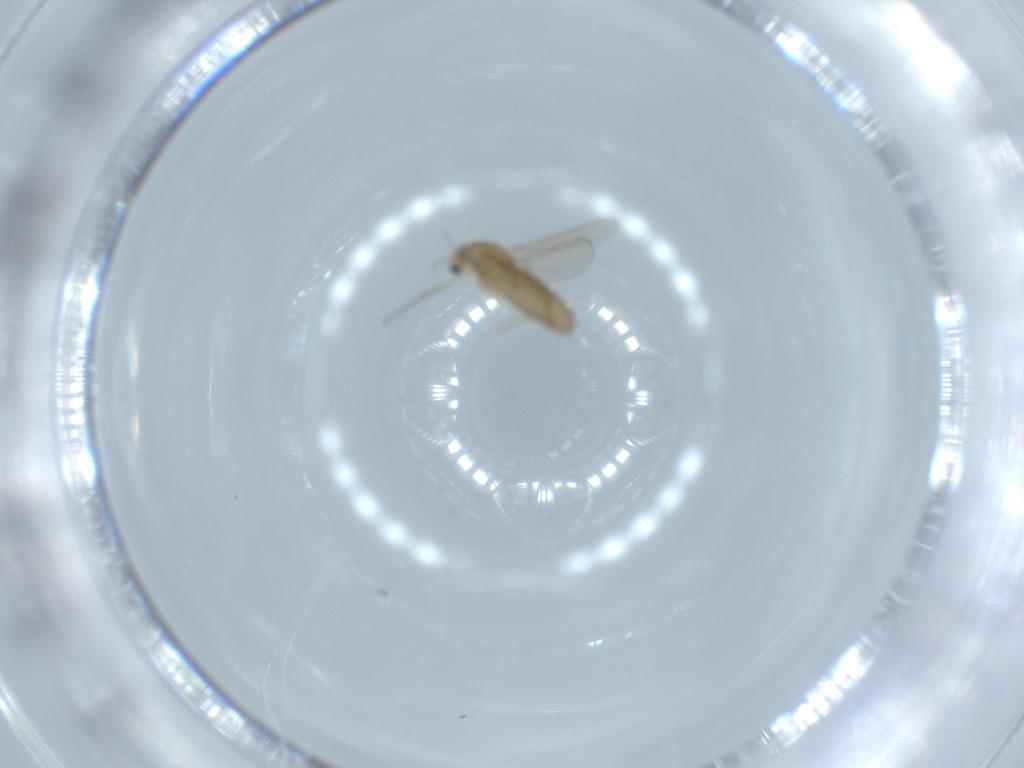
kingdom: Animalia
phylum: Arthropoda
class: Insecta
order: Diptera
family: Chironomidae
